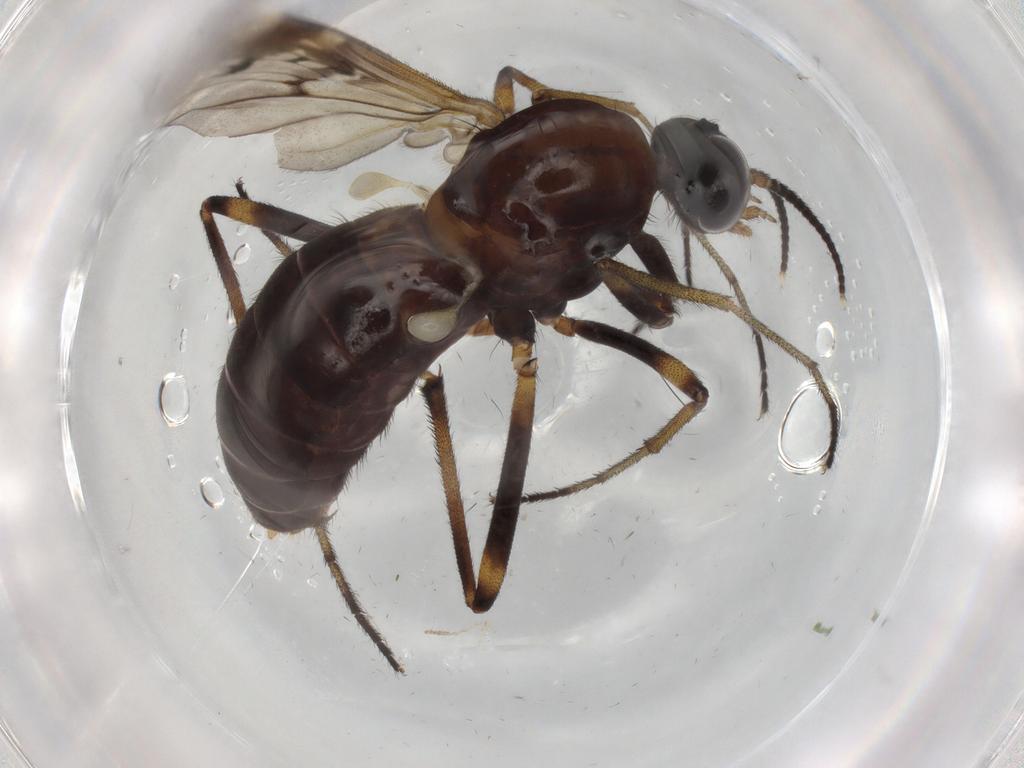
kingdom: Animalia
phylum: Arthropoda
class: Insecta
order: Diptera
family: Anisopodidae
